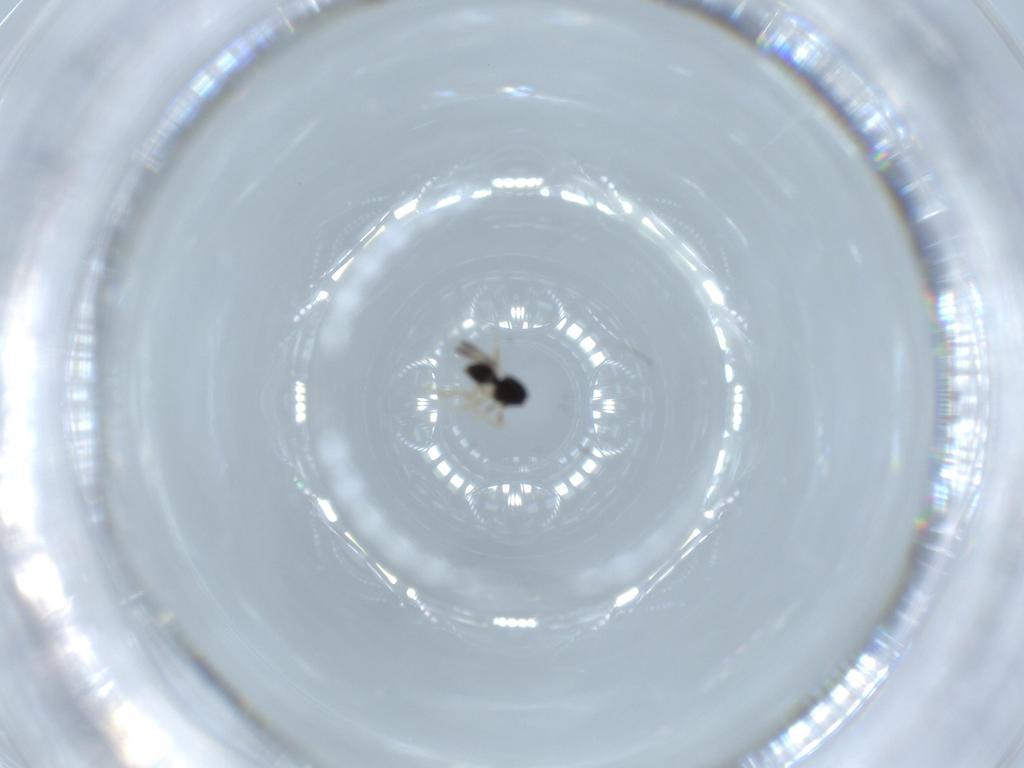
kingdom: Animalia
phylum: Arthropoda
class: Insecta
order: Hymenoptera
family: Ceraphronidae
